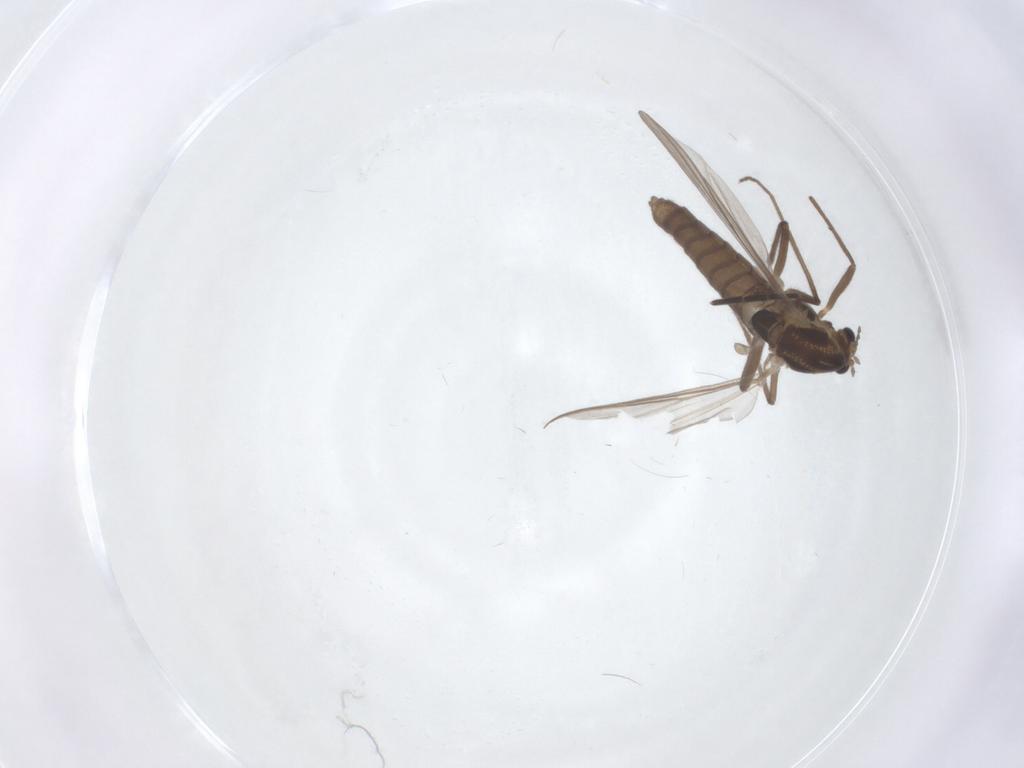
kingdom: Animalia
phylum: Arthropoda
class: Insecta
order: Diptera
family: Chironomidae
